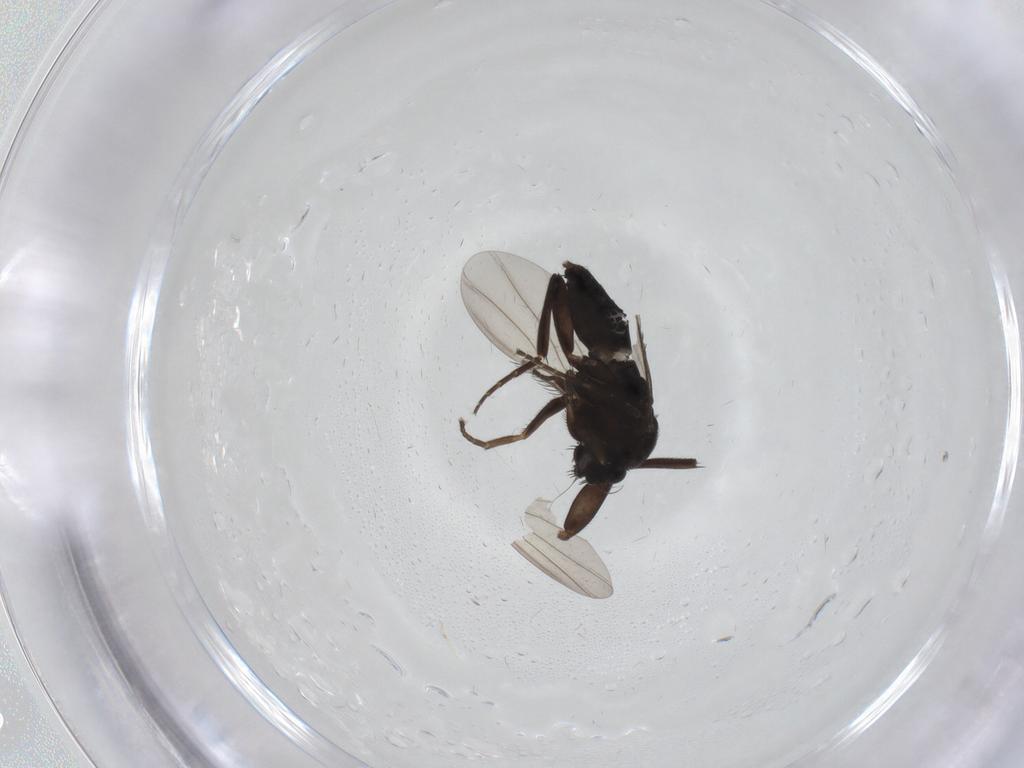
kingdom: Animalia
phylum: Arthropoda
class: Insecta
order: Diptera
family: Phoridae
